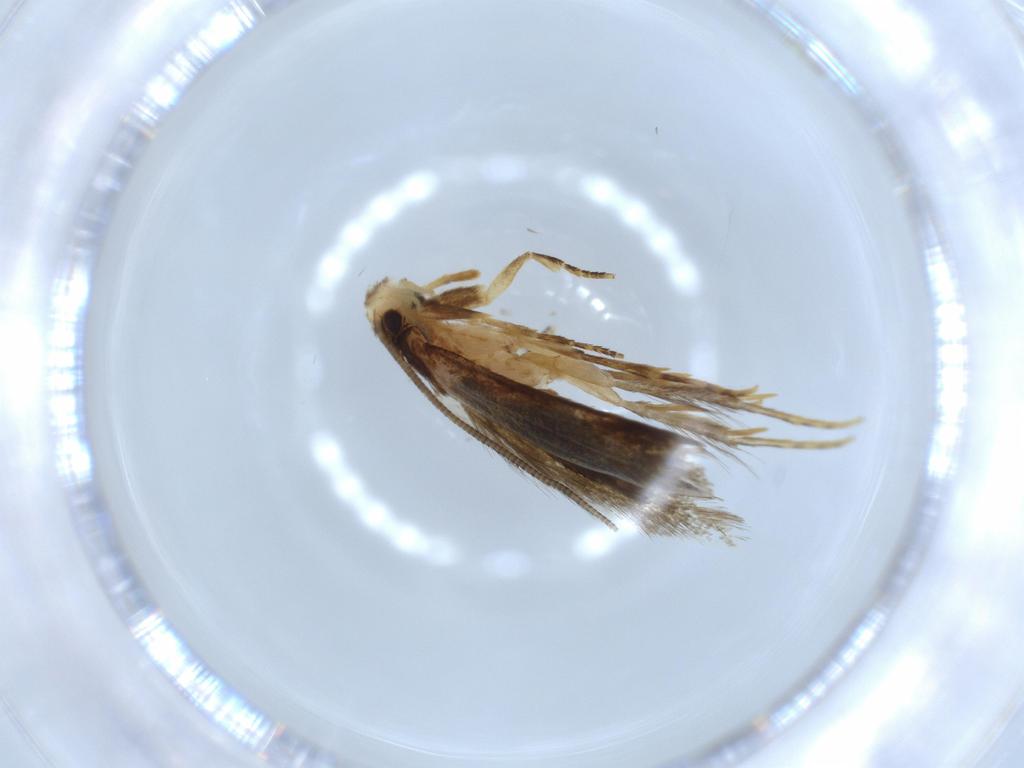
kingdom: Animalia
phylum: Arthropoda
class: Insecta
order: Lepidoptera
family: Tineidae
